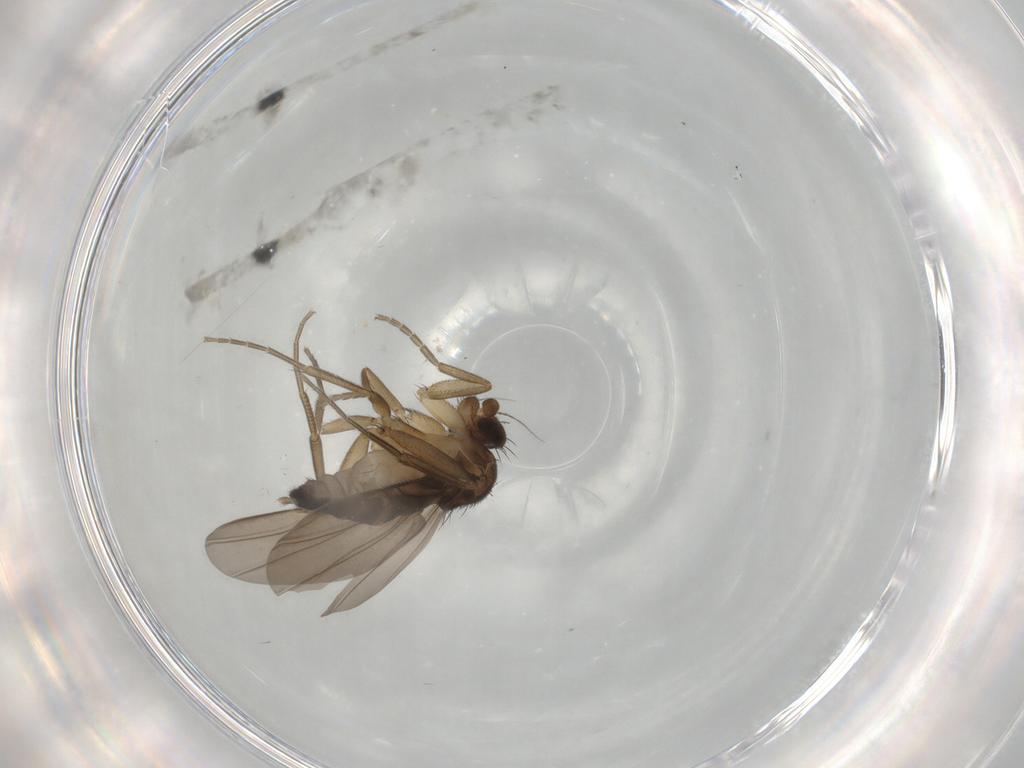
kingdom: Animalia
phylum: Arthropoda
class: Insecta
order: Diptera
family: Phoridae
